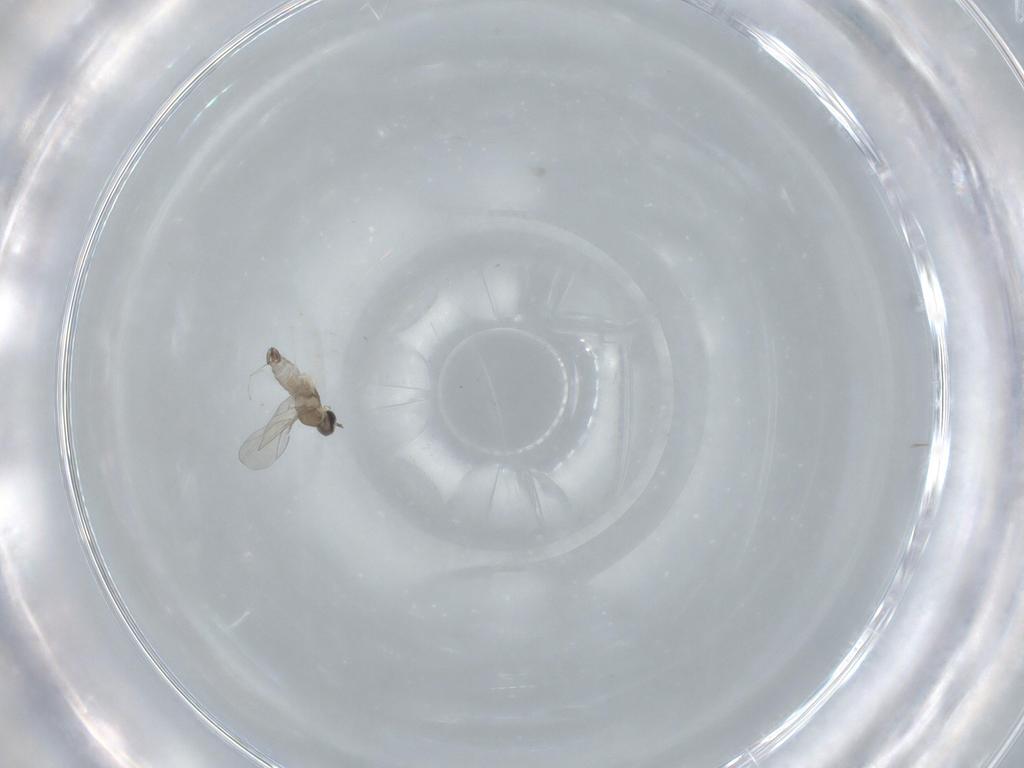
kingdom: Animalia
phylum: Arthropoda
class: Insecta
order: Diptera
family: Cecidomyiidae
